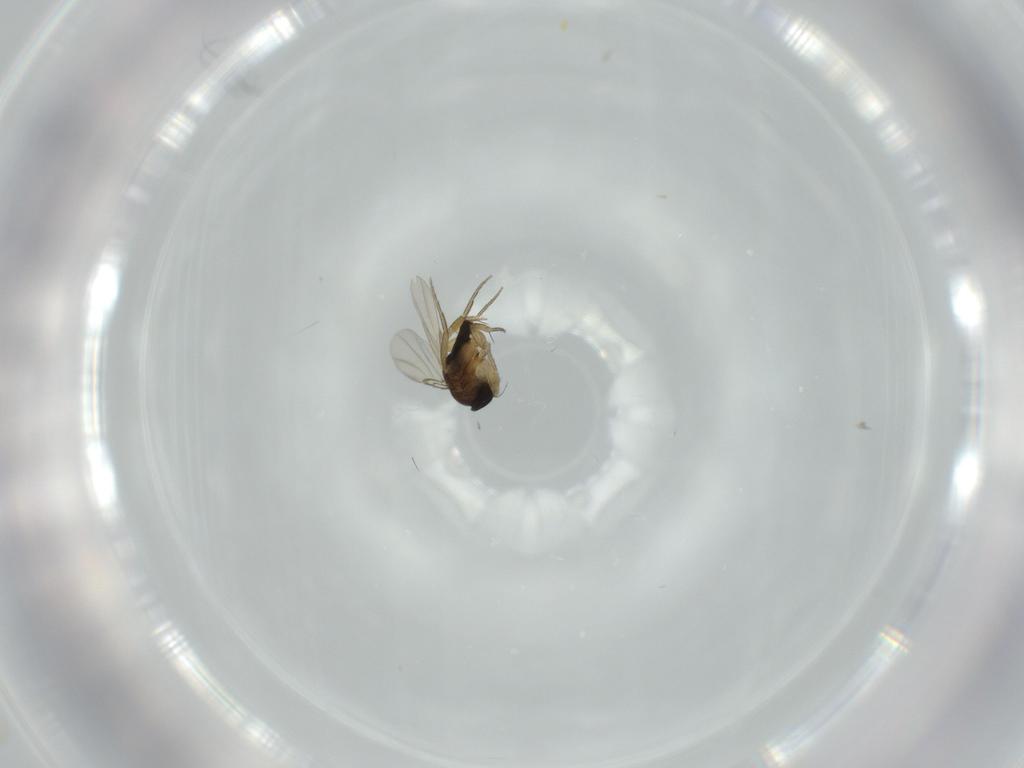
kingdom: Animalia
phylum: Arthropoda
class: Insecta
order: Diptera
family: Phoridae
